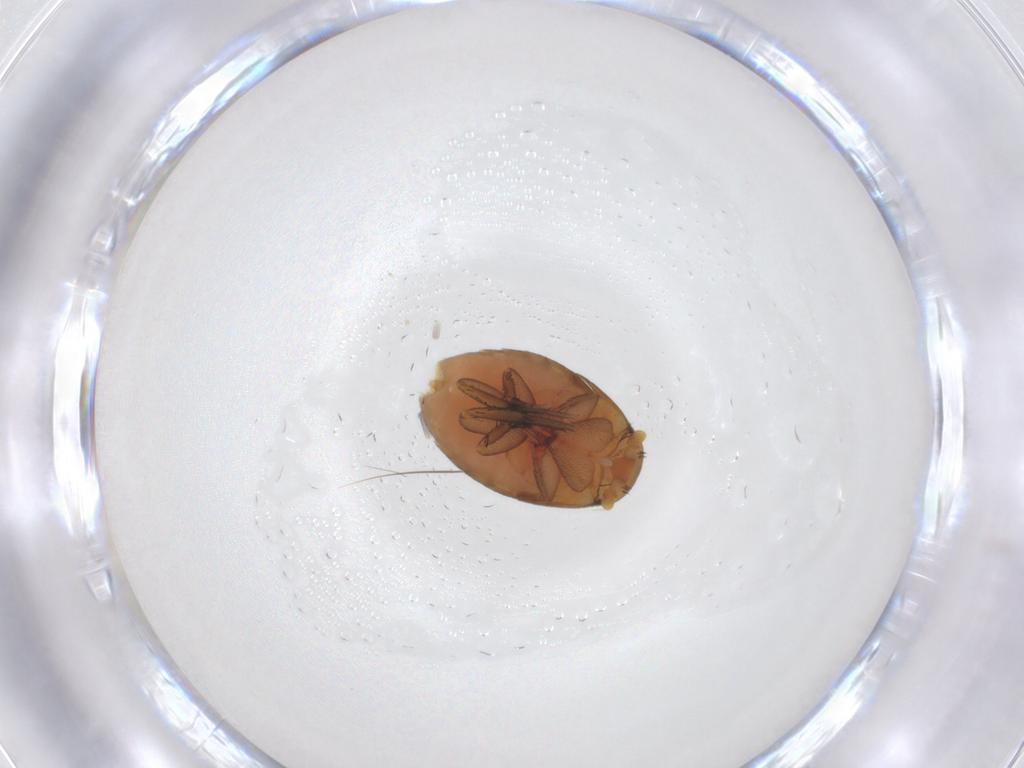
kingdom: Animalia
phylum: Arthropoda
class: Insecta
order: Diptera
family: Phoridae
